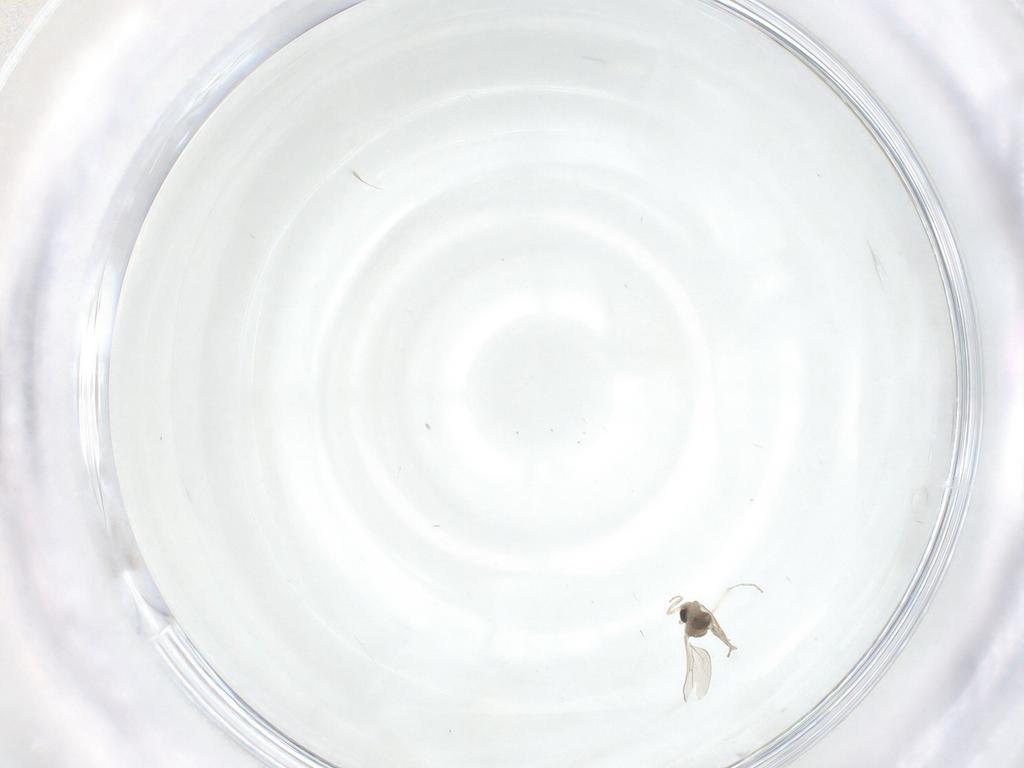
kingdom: Animalia
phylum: Arthropoda
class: Insecta
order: Diptera
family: Cecidomyiidae
